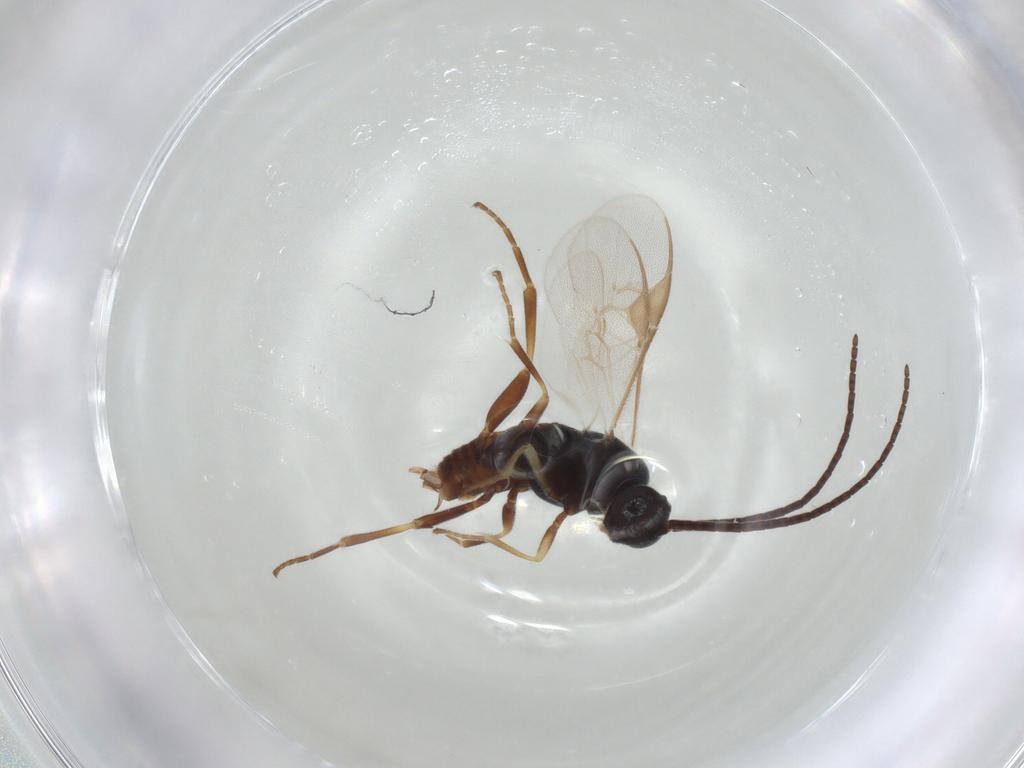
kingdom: Animalia
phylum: Arthropoda
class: Insecta
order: Hymenoptera
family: Braconidae
